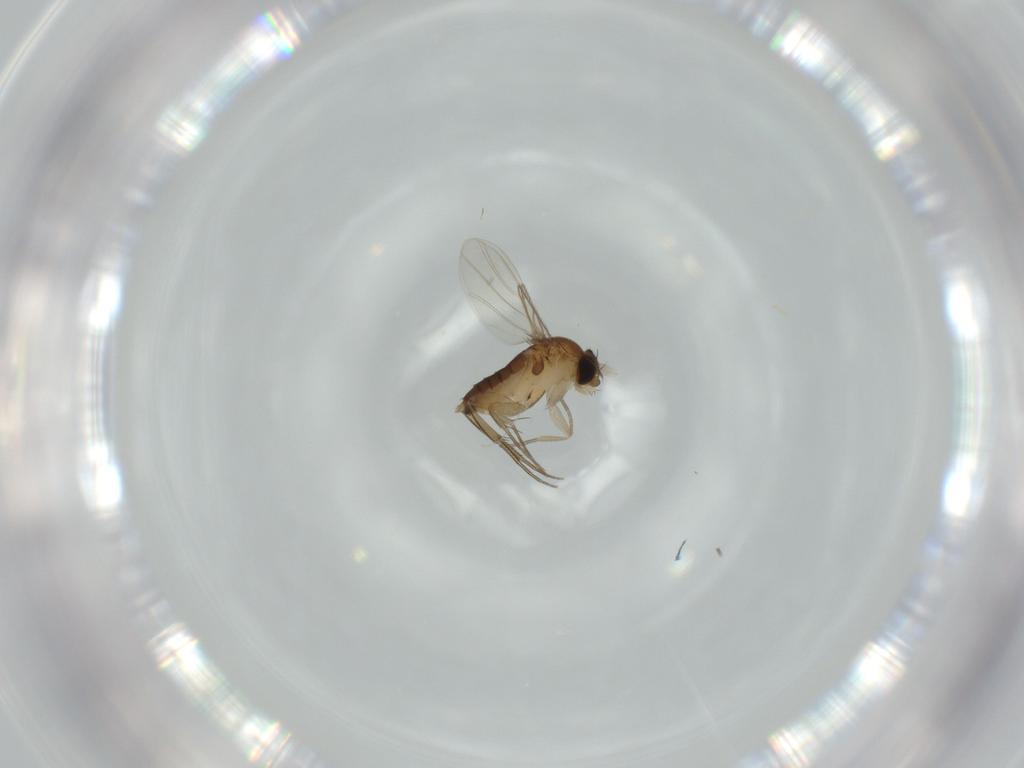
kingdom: Animalia
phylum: Arthropoda
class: Insecta
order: Diptera
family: Phoridae
